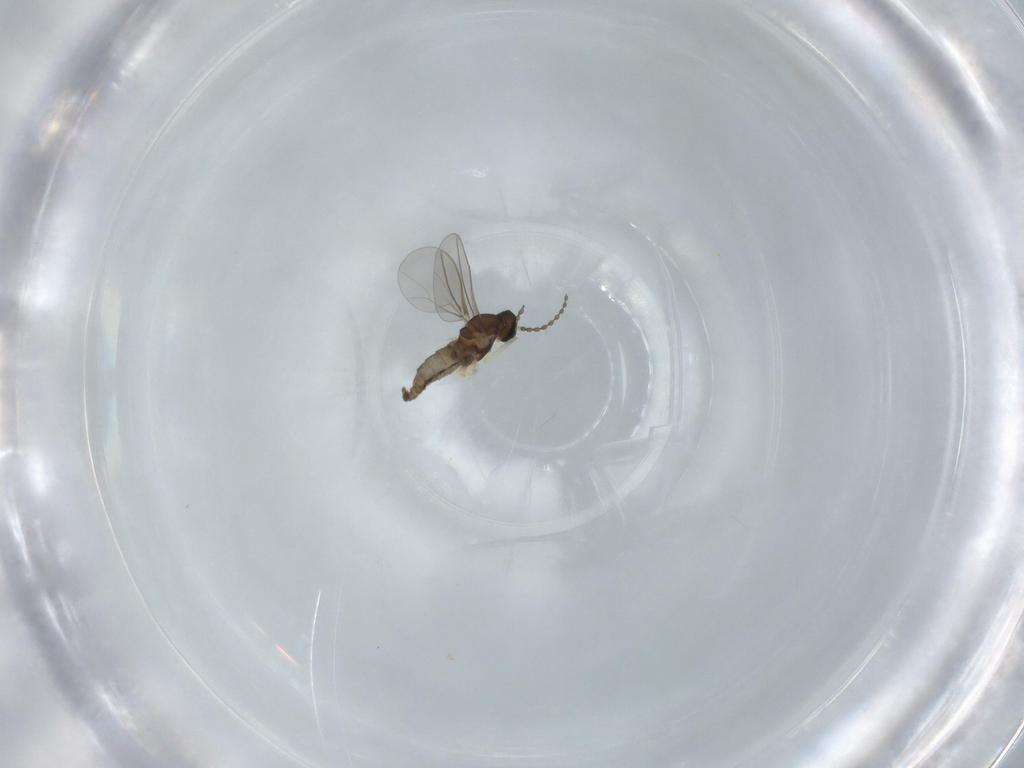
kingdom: Animalia
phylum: Arthropoda
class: Insecta
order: Diptera
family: Cecidomyiidae
